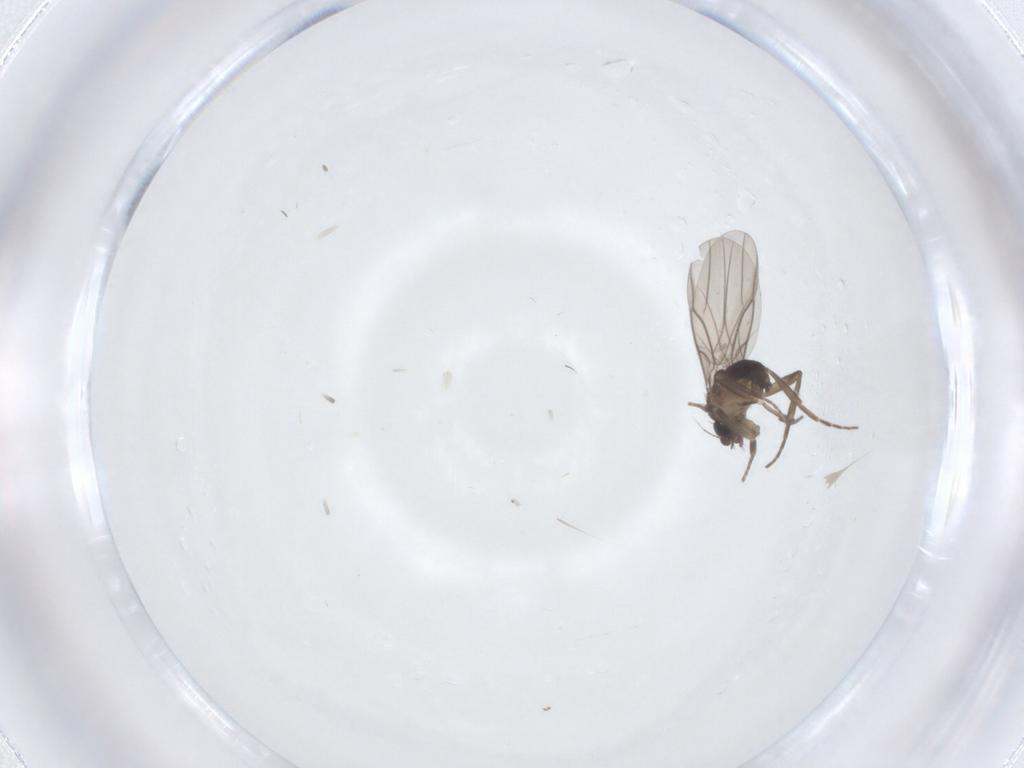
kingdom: Animalia
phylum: Arthropoda
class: Insecta
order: Diptera
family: Phoridae
